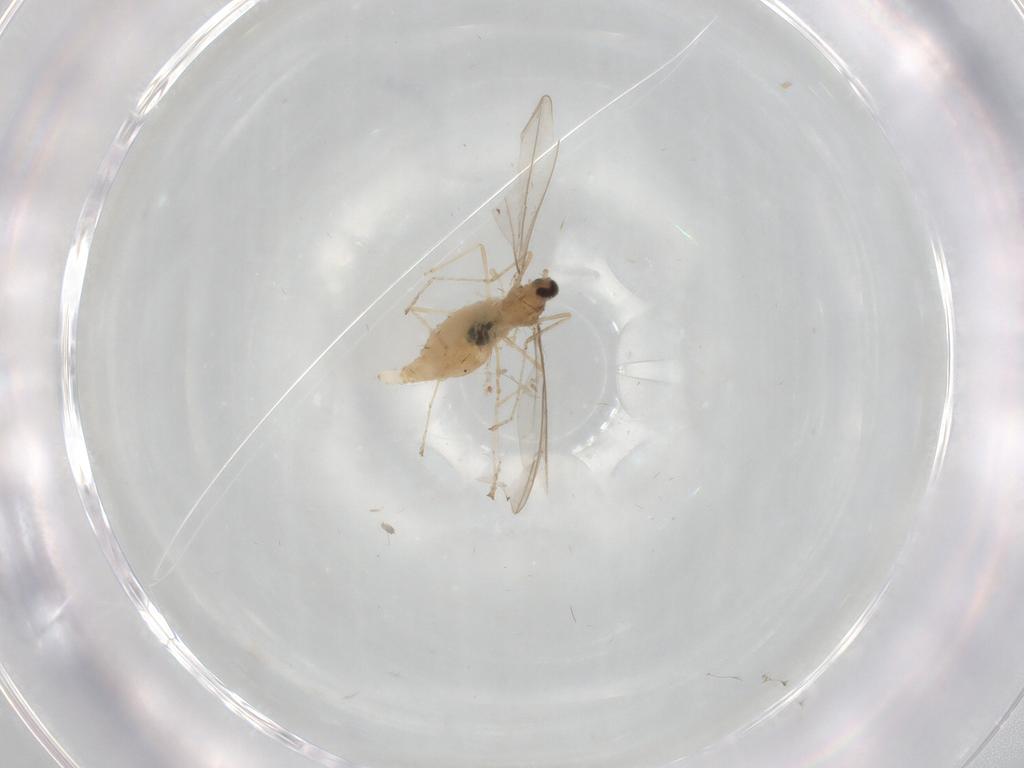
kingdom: Animalia
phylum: Arthropoda
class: Insecta
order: Diptera
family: Cecidomyiidae
